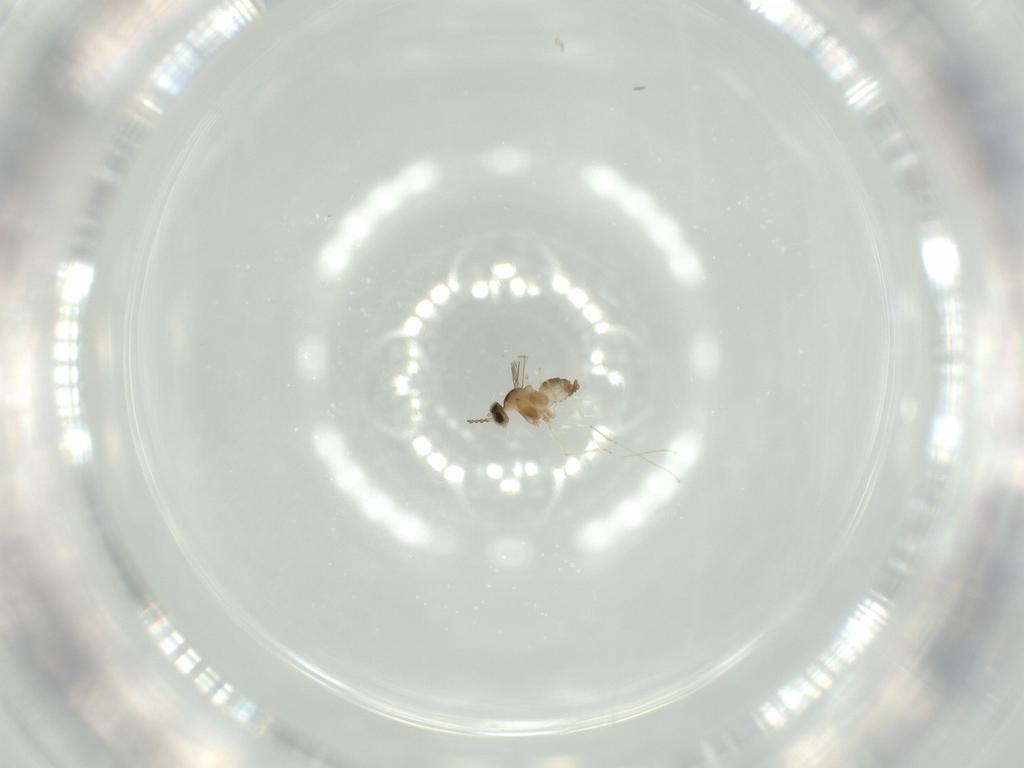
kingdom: Animalia
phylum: Arthropoda
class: Insecta
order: Diptera
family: Cecidomyiidae
